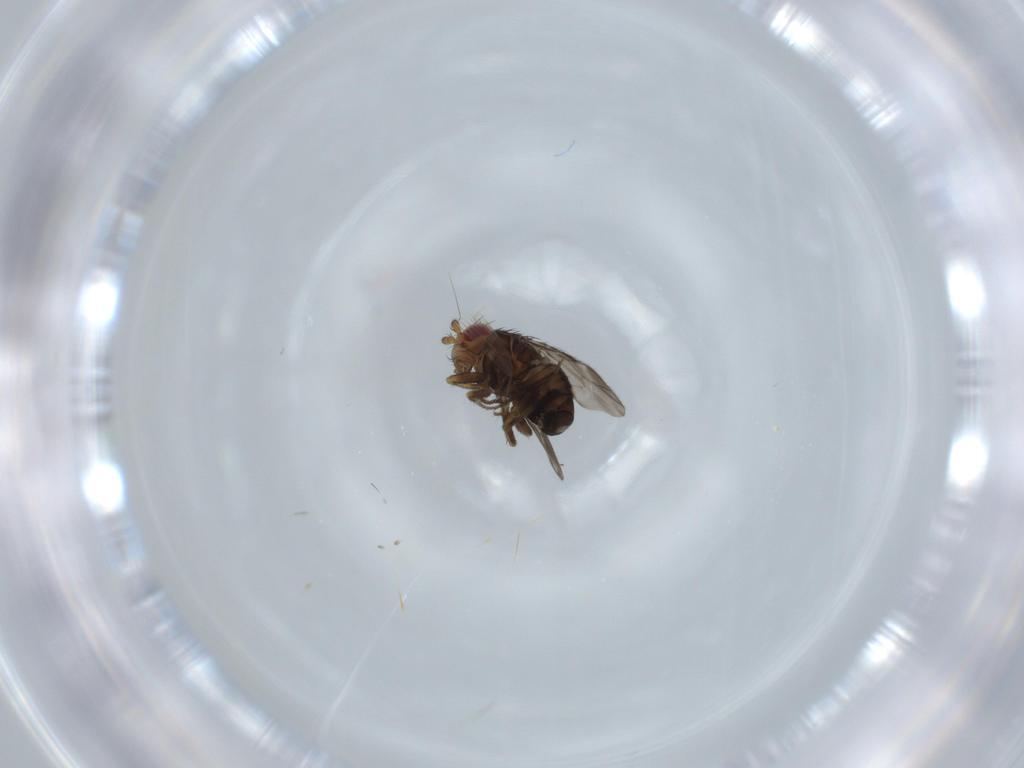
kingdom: Animalia
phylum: Arthropoda
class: Insecta
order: Diptera
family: Sphaeroceridae
